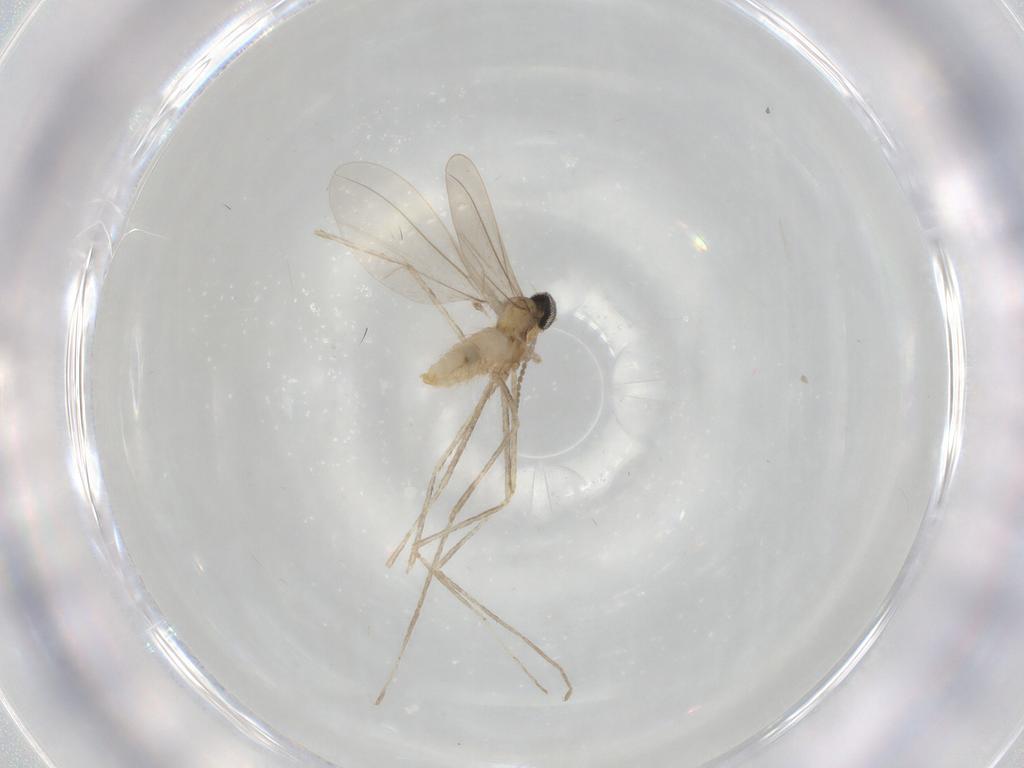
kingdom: Animalia
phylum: Arthropoda
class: Insecta
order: Diptera
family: Cecidomyiidae
